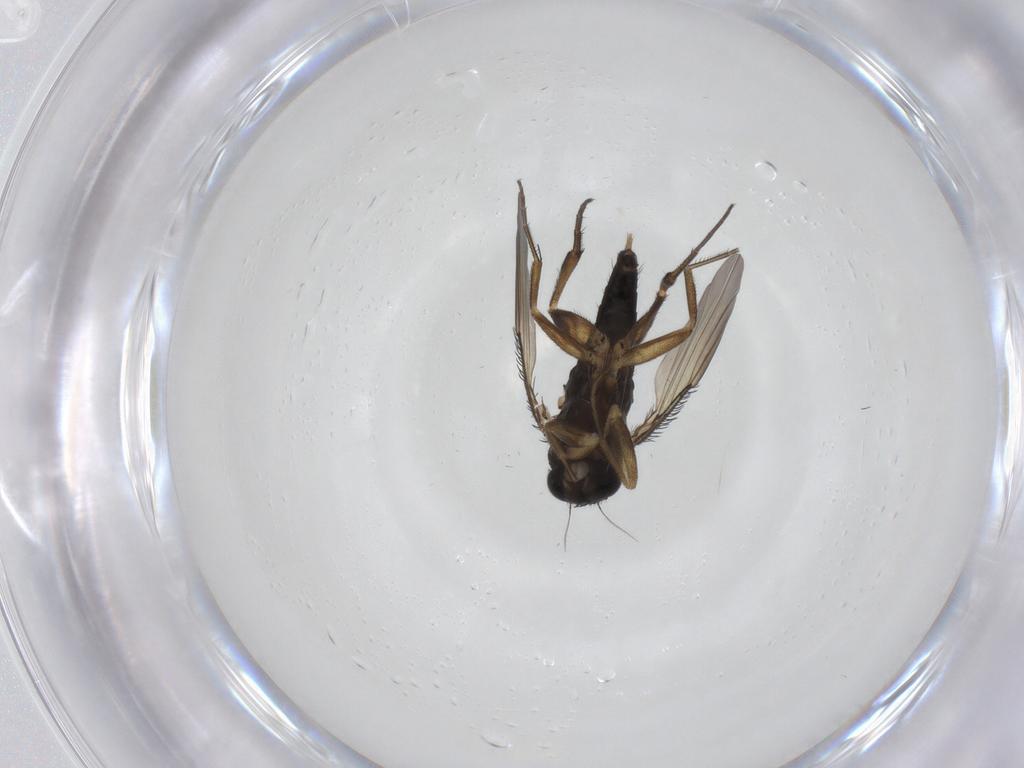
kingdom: Animalia
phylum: Arthropoda
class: Insecta
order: Diptera
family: Phoridae
